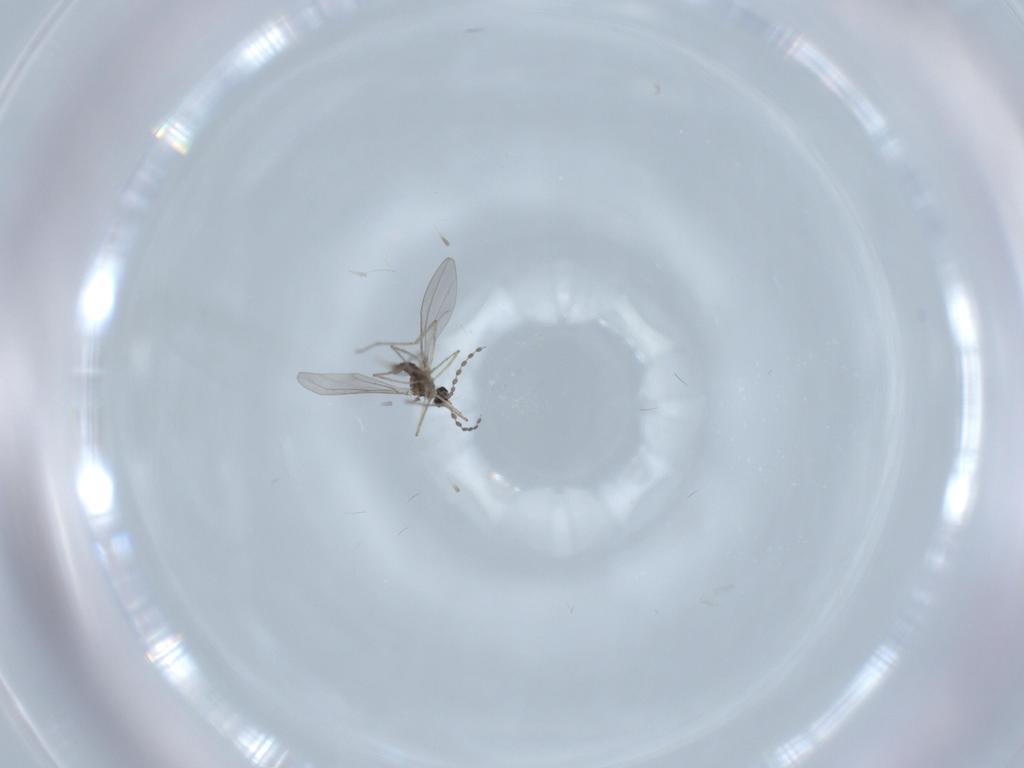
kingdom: Animalia
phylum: Arthropoda
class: Insecta
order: Diptera
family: Cecidomyiidae
